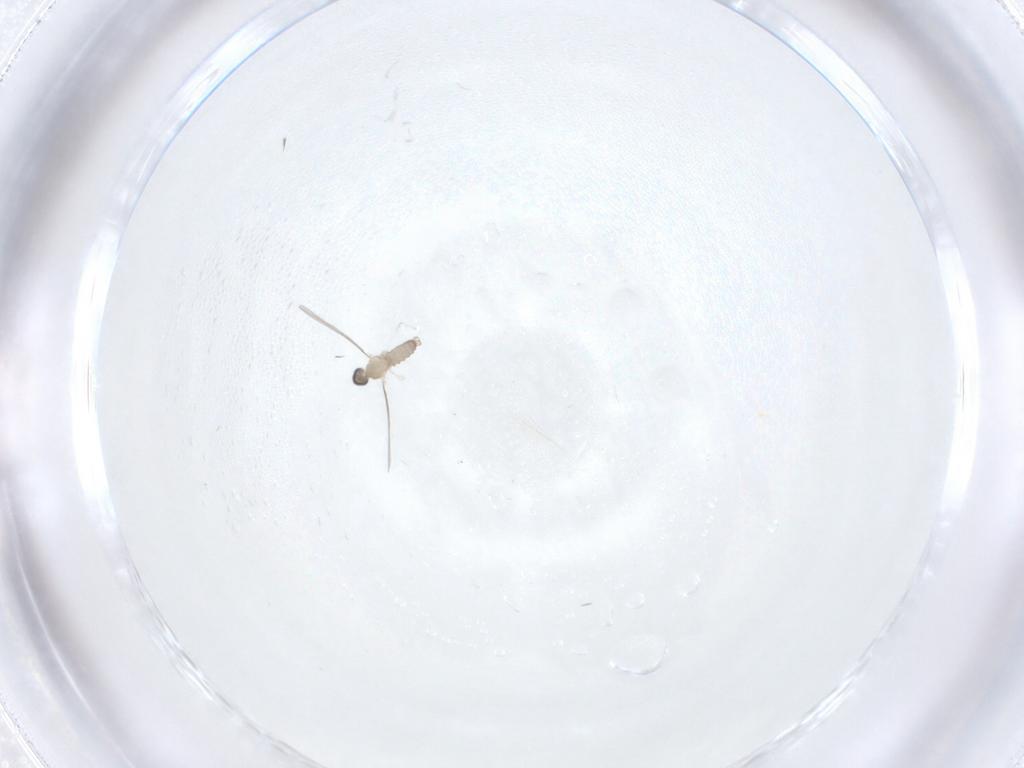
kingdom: Animalia
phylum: Arthropoda
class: Insecta
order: Diptera
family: Cecidomyiidae
